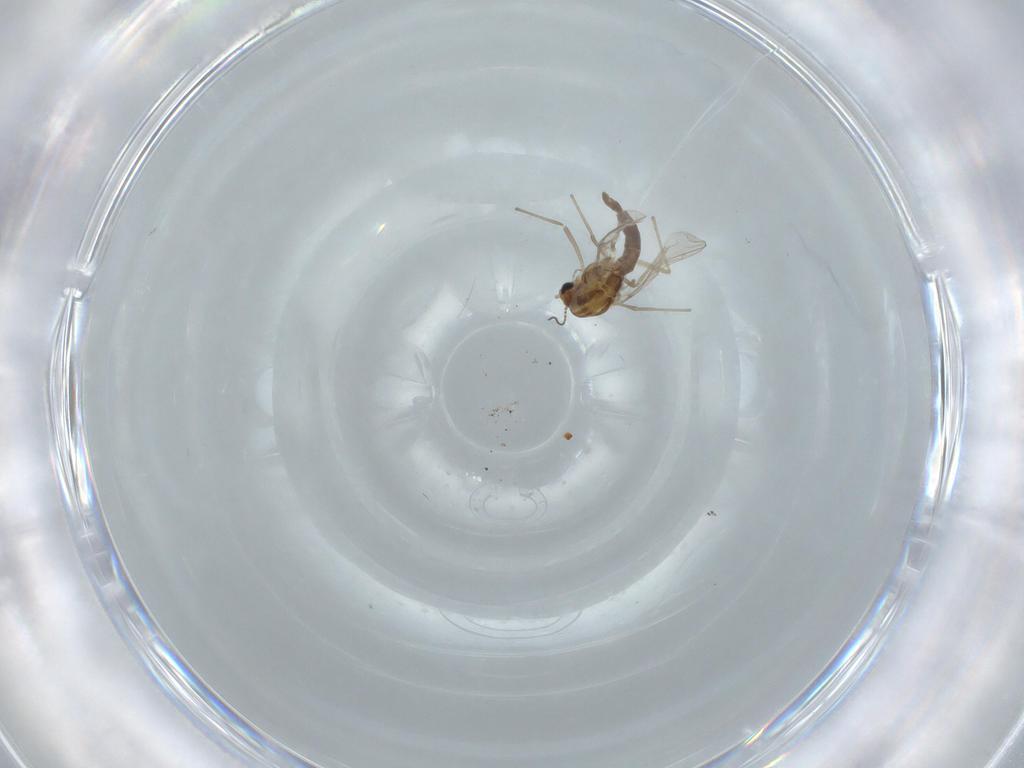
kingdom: Animalia
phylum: Arthropoda
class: Insecta
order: Diptera
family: Chironomidae
